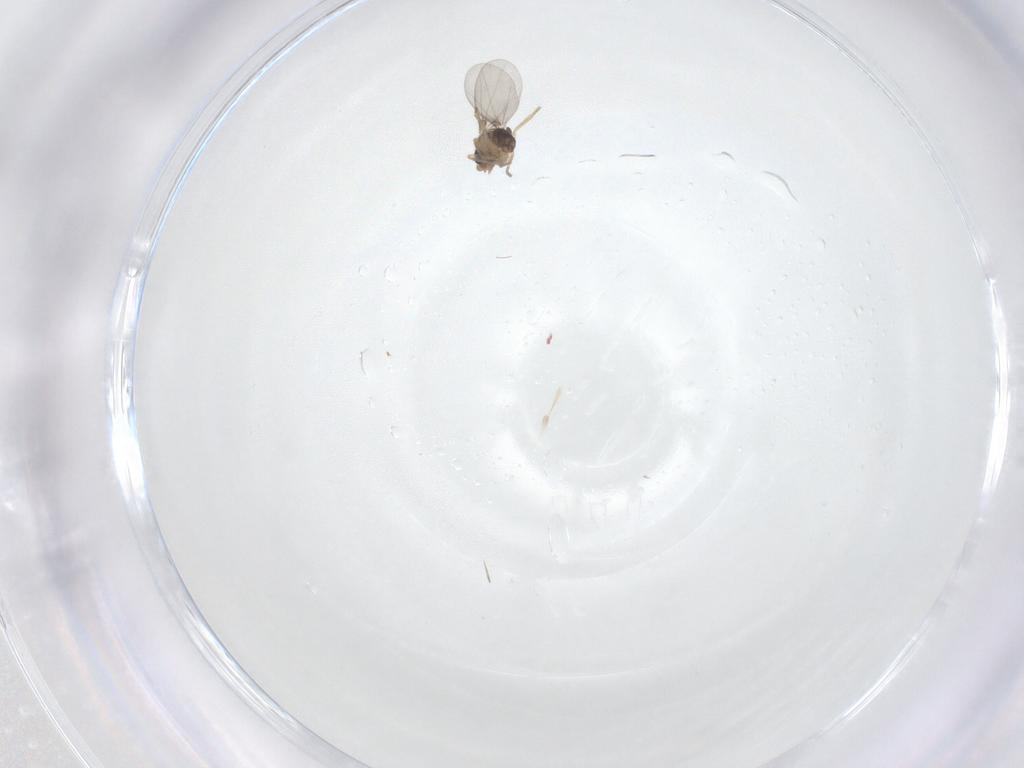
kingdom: Animalia
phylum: Arthropoda
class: Insecta
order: Diptera
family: Phoridae
